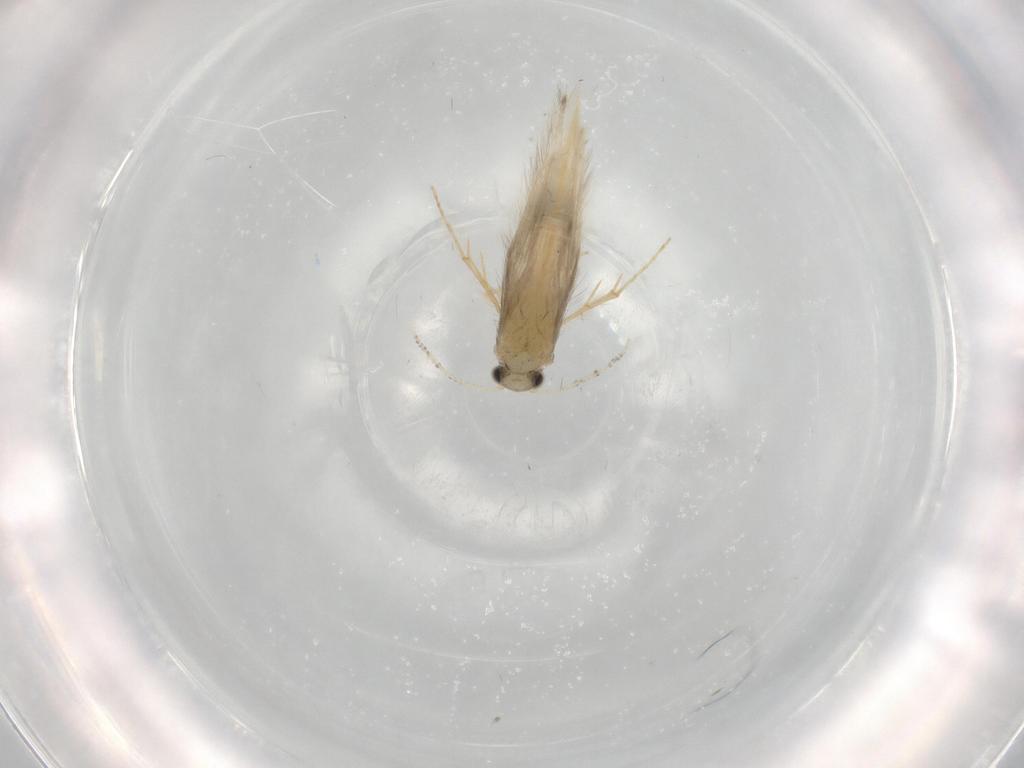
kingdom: Animalia
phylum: Arthropoda
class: Insecta
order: Trichoptera
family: Hydroptilidae
